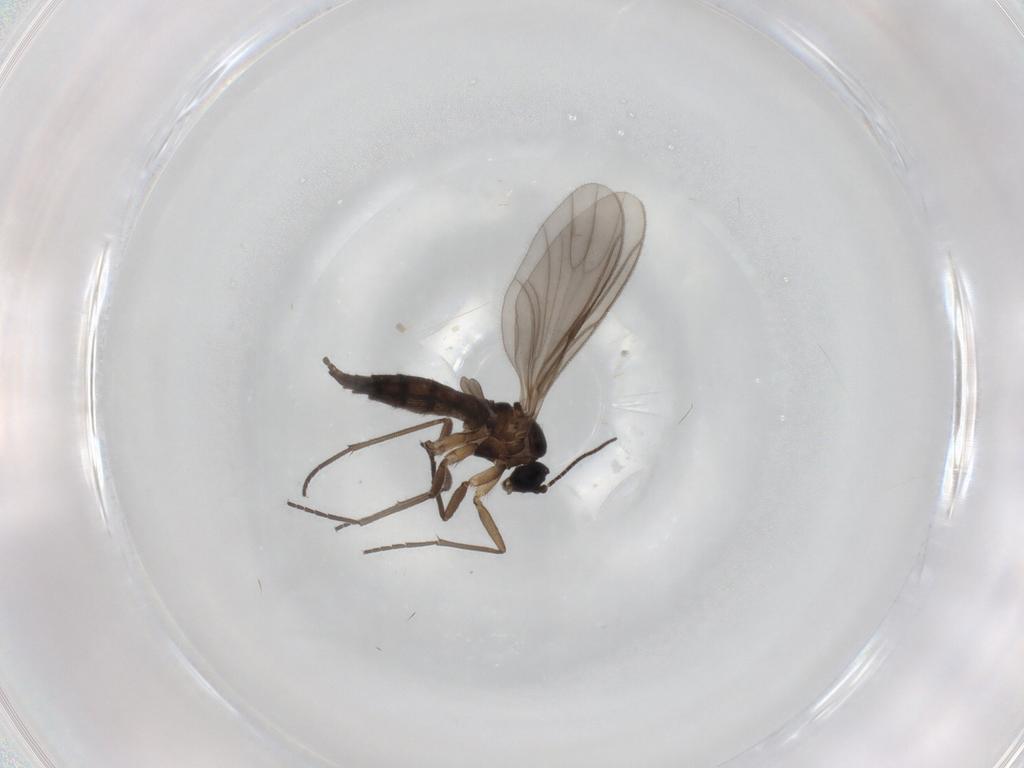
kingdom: Animalia
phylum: Arthropoda
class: Insecta
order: Diptera
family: Sciaridae
